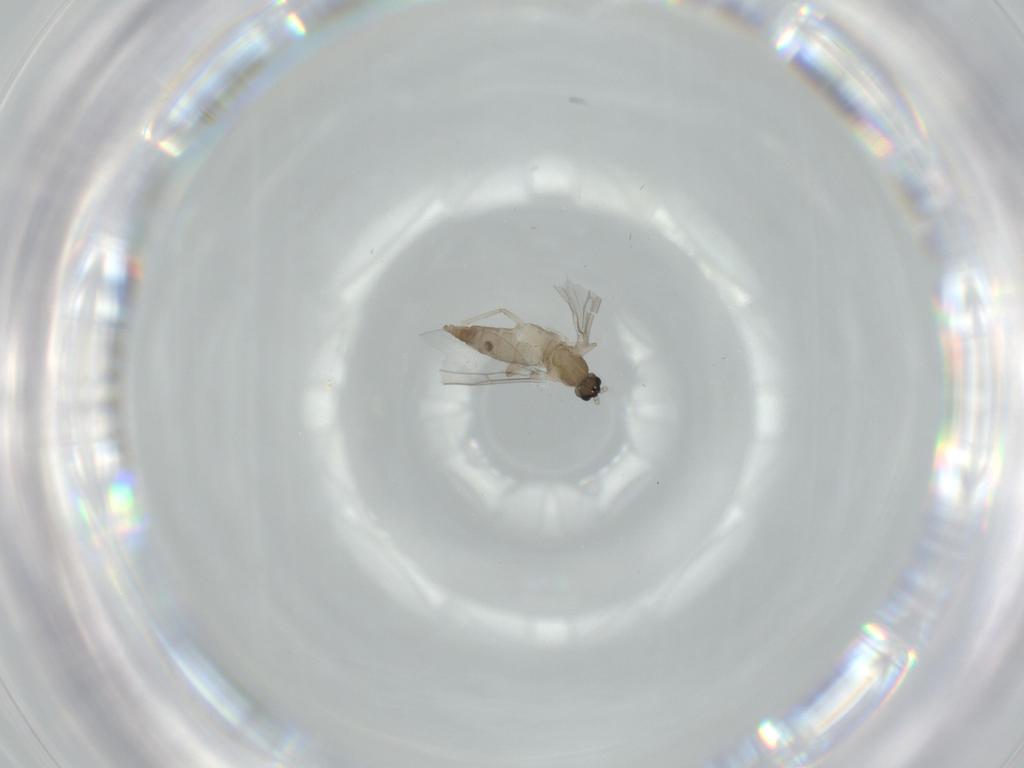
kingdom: Animalia
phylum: Arthropoda
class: Insecta
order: Diptera
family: Cecidomyiidae
